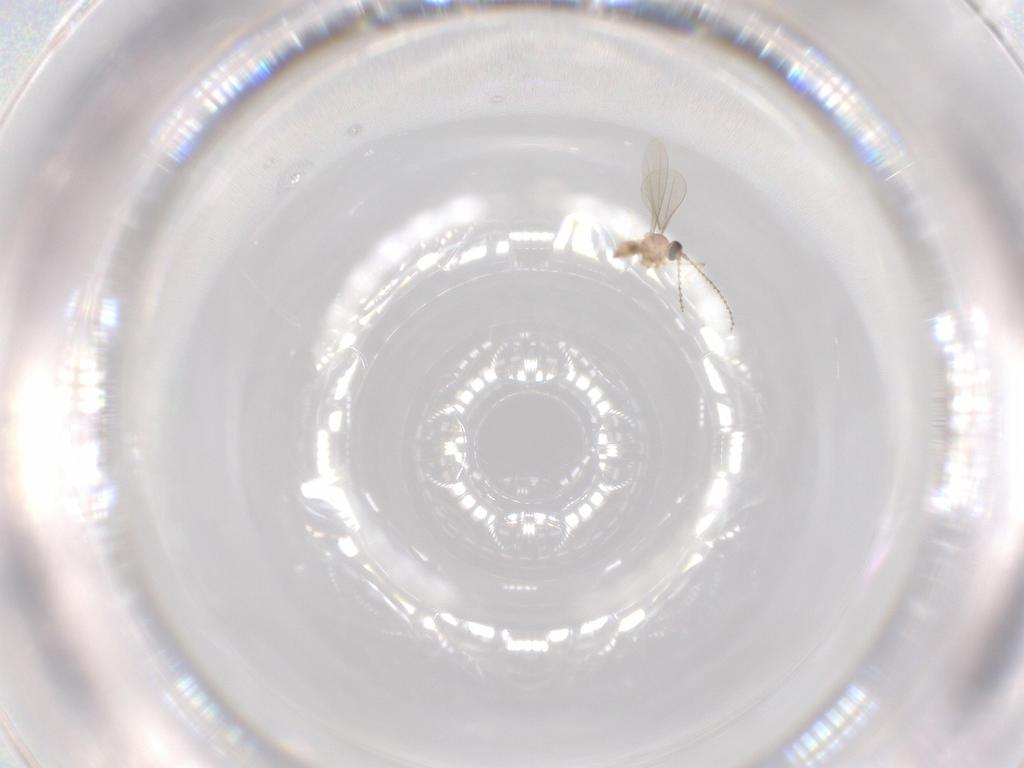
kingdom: Animalia
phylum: Arthropoda
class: Insecta
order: Diptera
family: Cecidomyiidae
